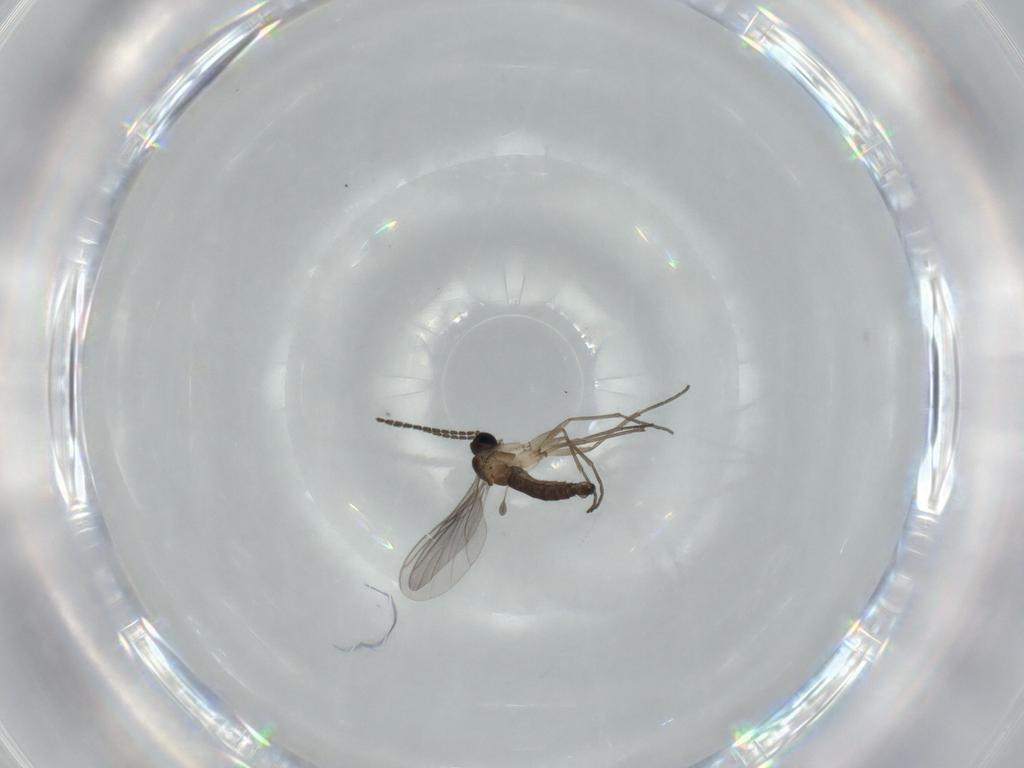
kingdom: Animalia
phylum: Arthropoda
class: Insecta
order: Diptera
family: Sciaridae
